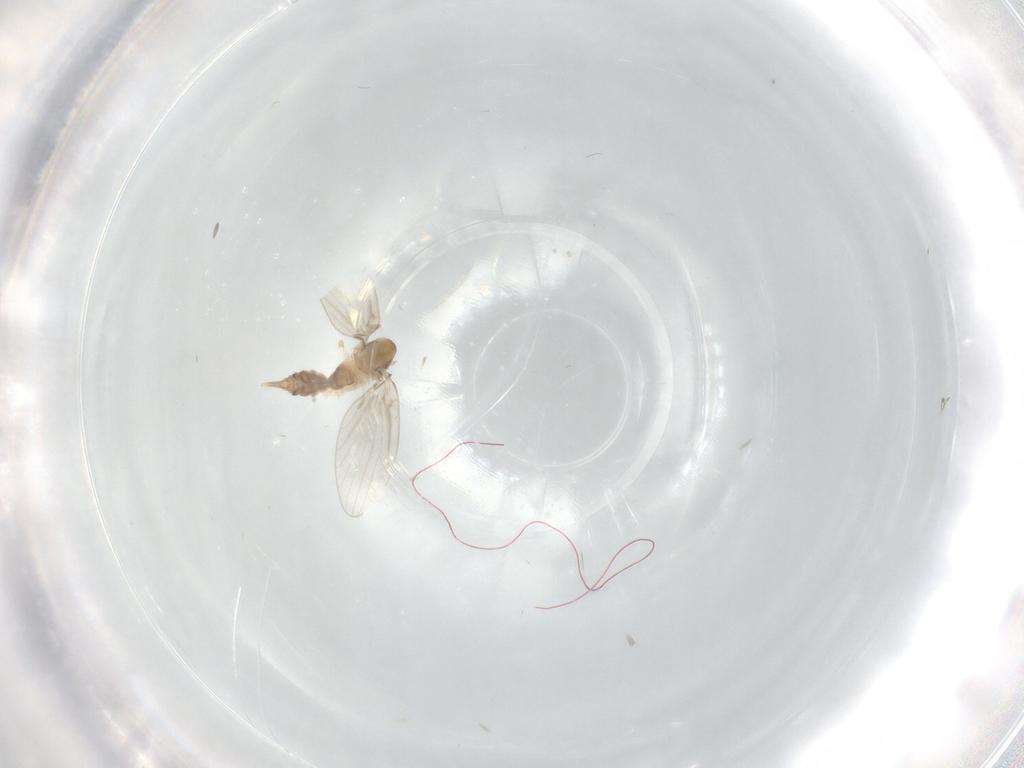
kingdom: Animalia
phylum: Arthropoda
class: Insecta
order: Diptera
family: Psychodidae
